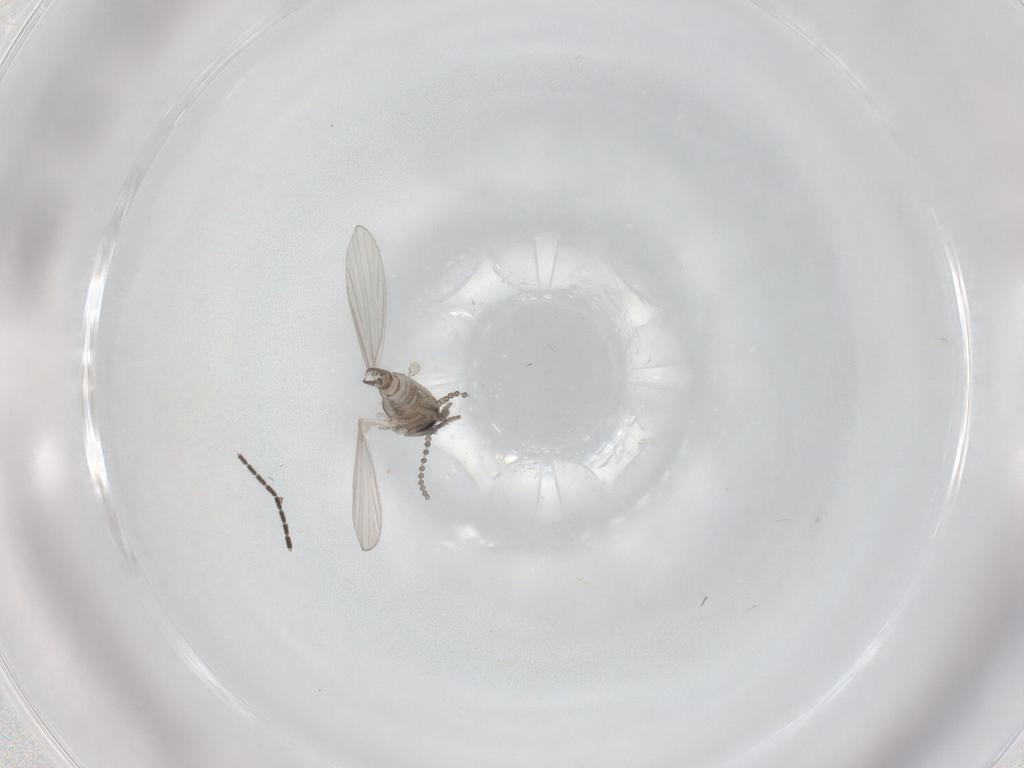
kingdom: Animalia
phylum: Arthropoda
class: Insecta
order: Diptera
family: Psychodidae
